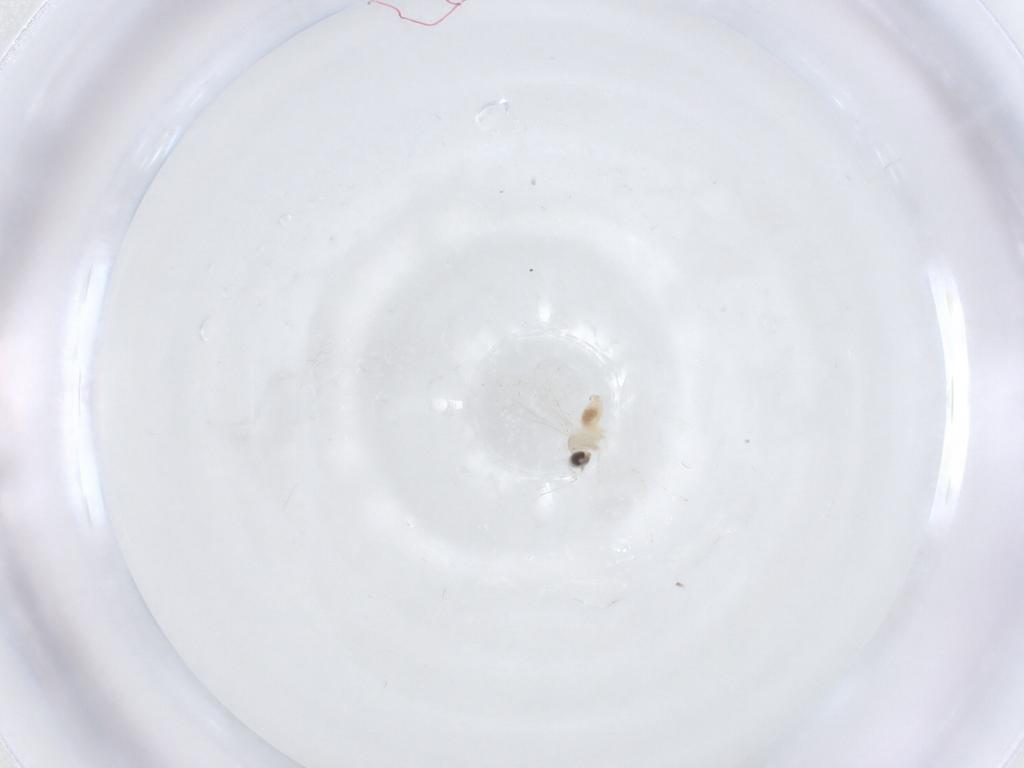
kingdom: Animalia
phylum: Arthropoda
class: Insecta
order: Diptera
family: Cecidomyiidae
